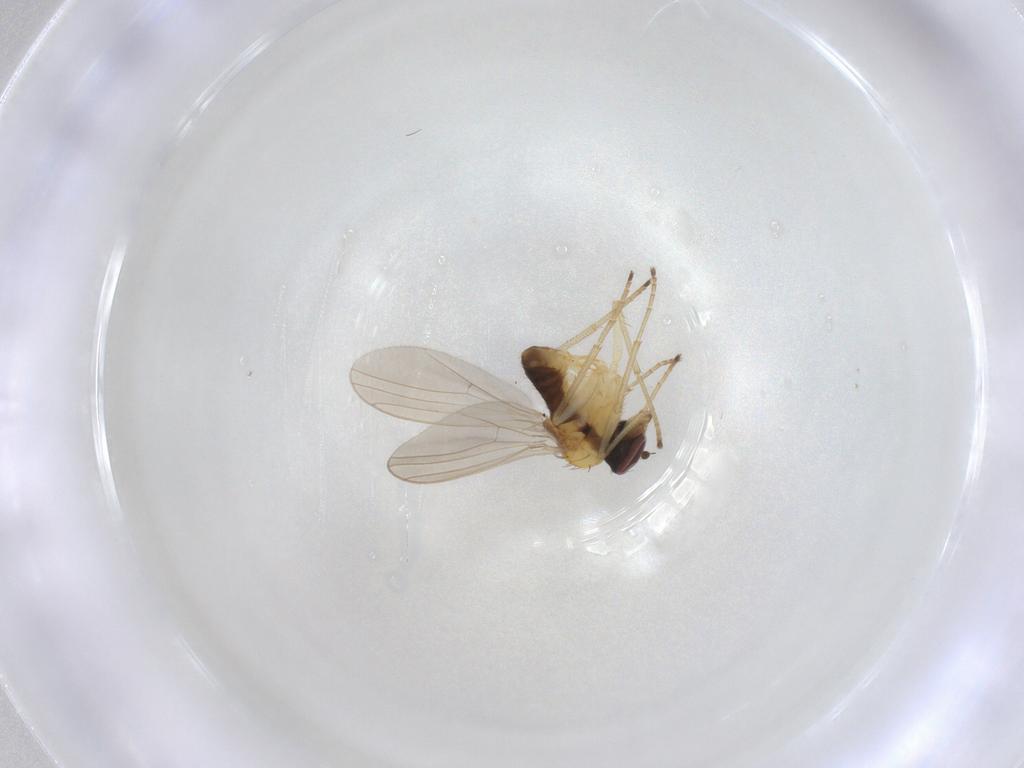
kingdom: Animalia
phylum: Arthropoda
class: Insecta
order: Diptera
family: Dolichopodidae
